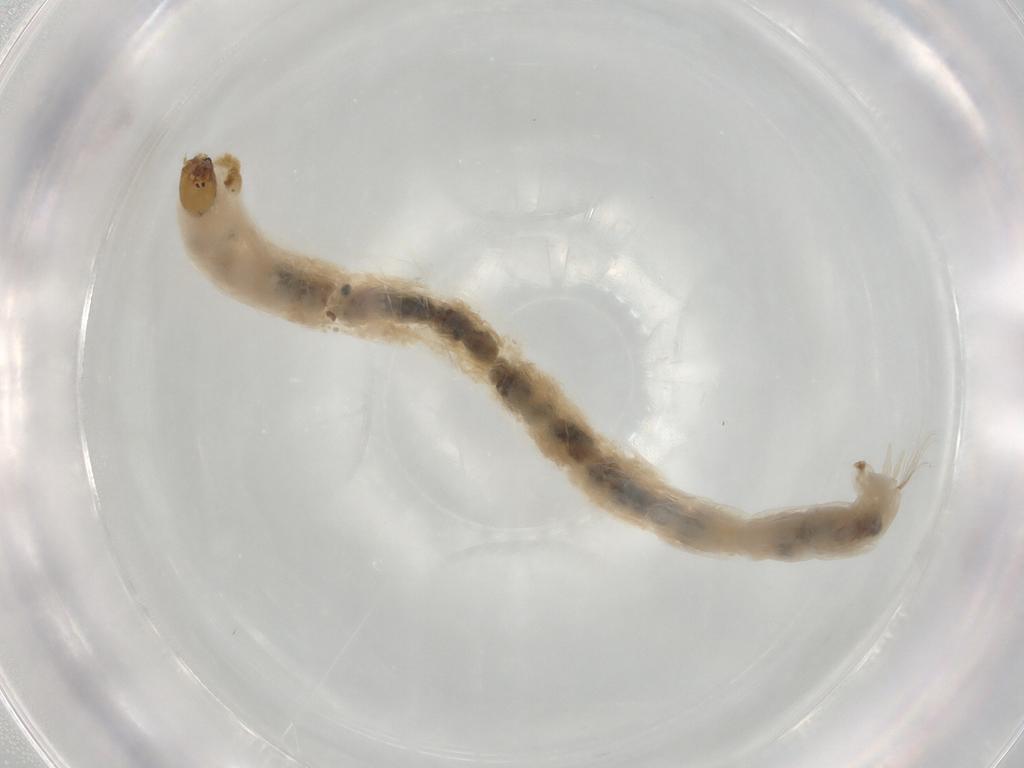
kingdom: Animalia
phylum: Arthropoda
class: Insecta
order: Diptera
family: Chironomidae
